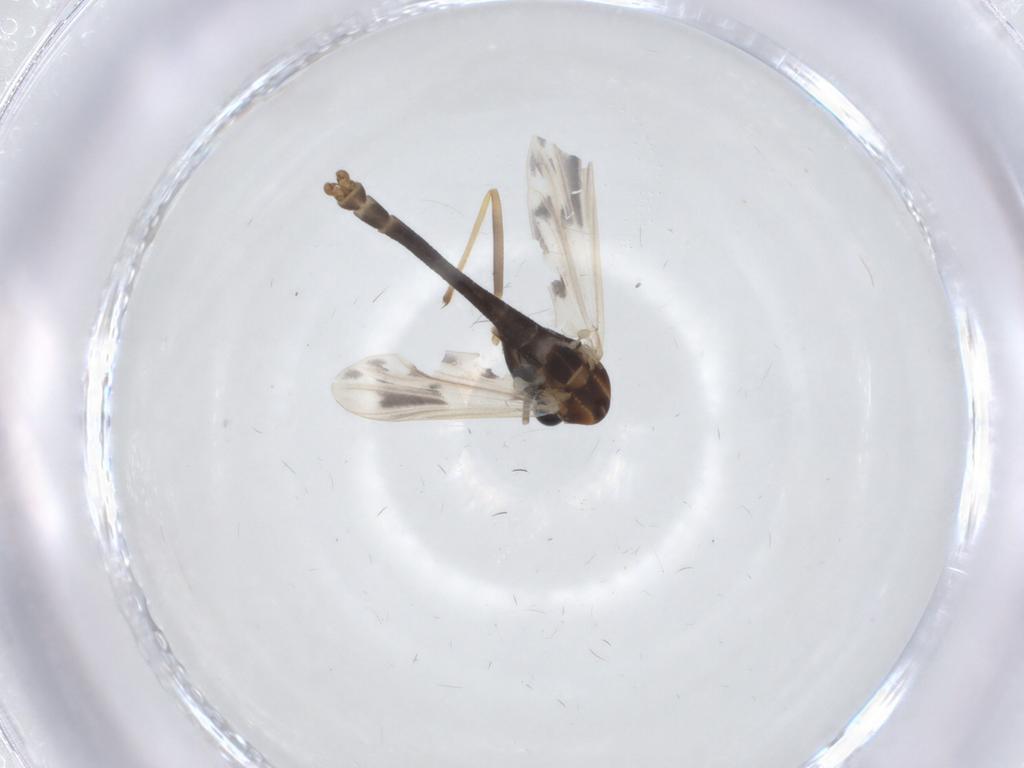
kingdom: Animalia
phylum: Arthropoda
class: Insecta
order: Diptera
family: Chironomidae
